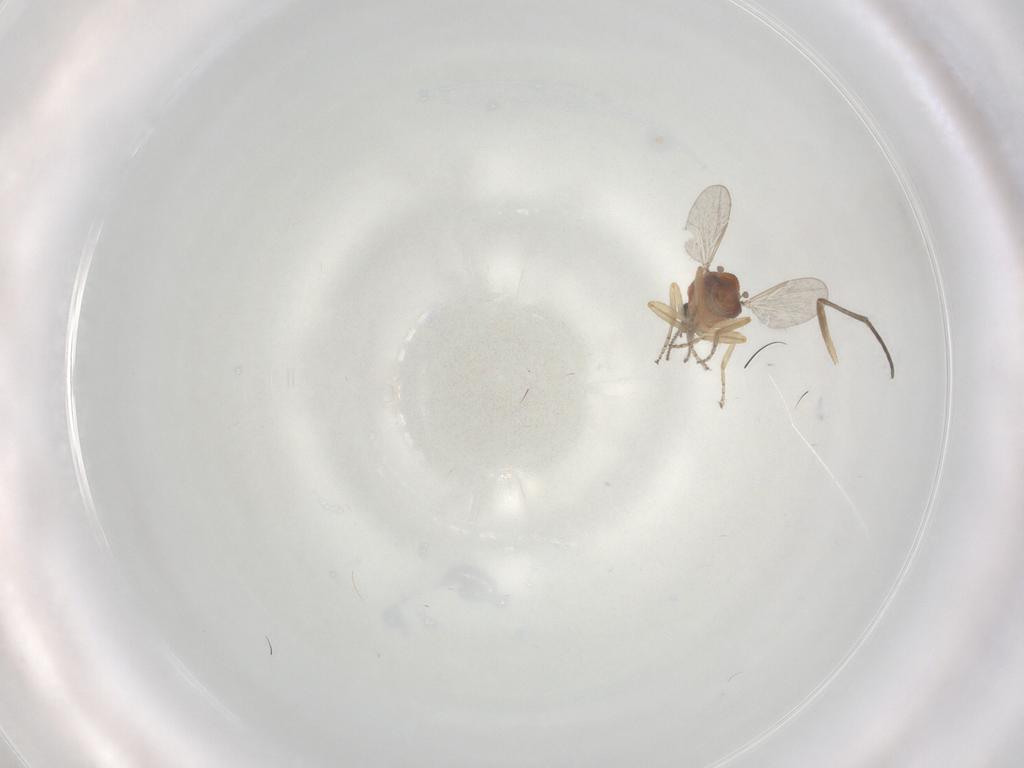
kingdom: Animalia
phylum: Arthropoda
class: Insecta
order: Diptera
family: Ceratopogonidae
